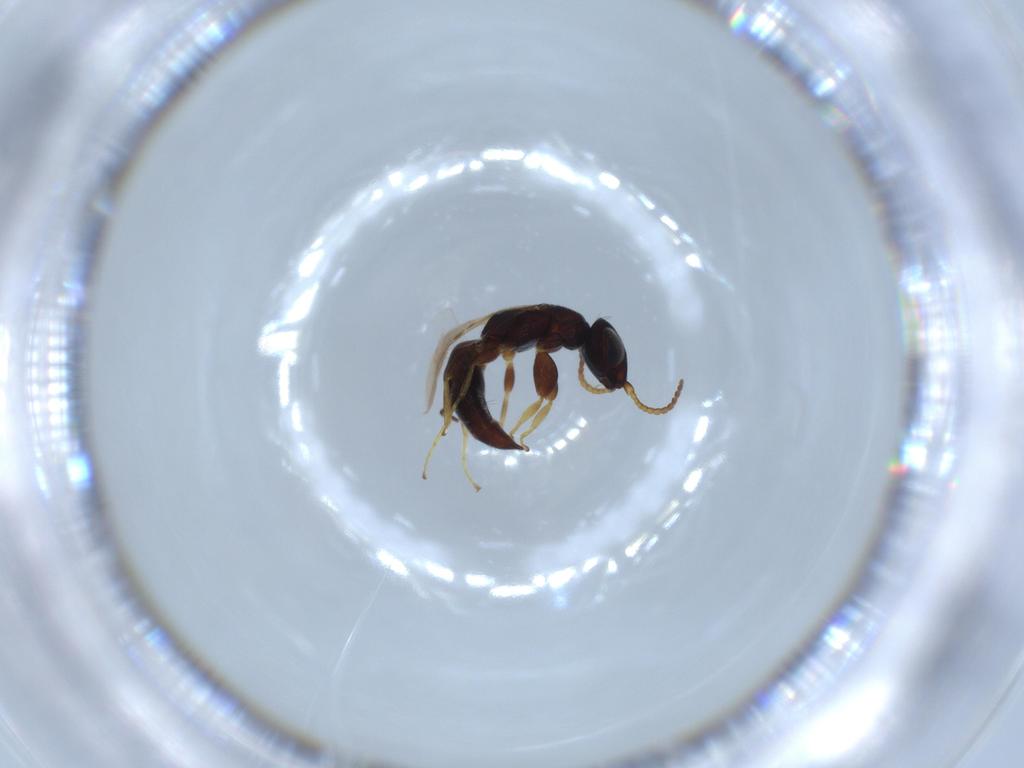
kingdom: Animalia
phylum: Arthropoda
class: Insecta
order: Hymenoptera
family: Bethylidae
